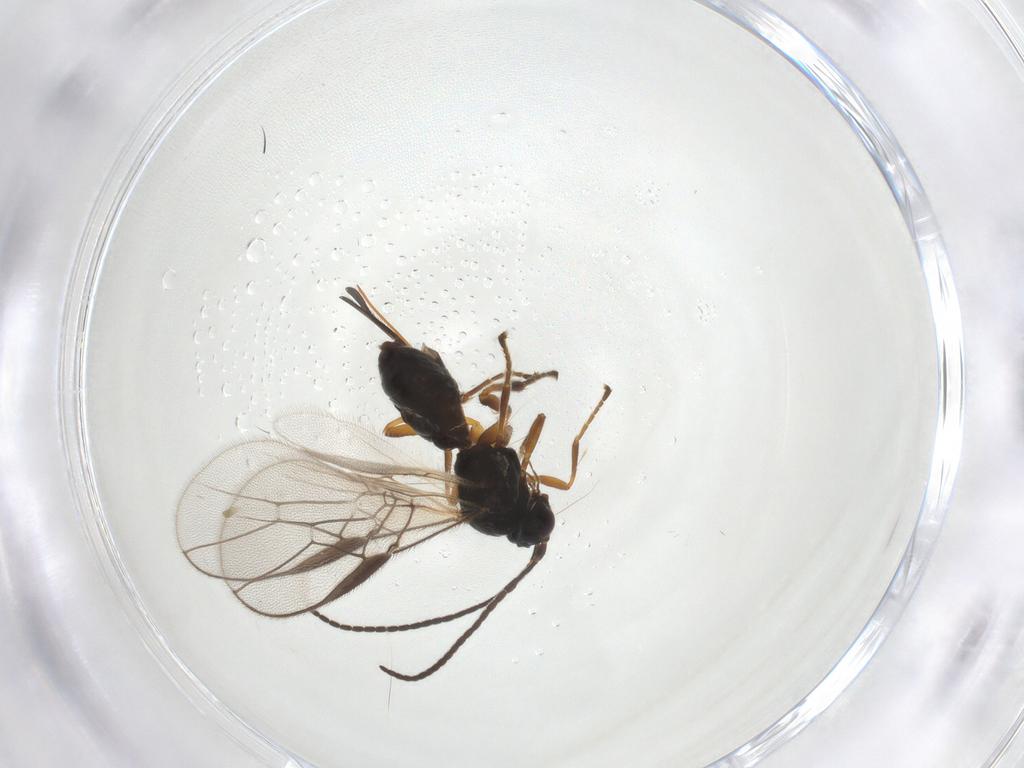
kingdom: Animalia
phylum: Arthropoda
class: Insecta
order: Hymenoptera
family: Braconidae
